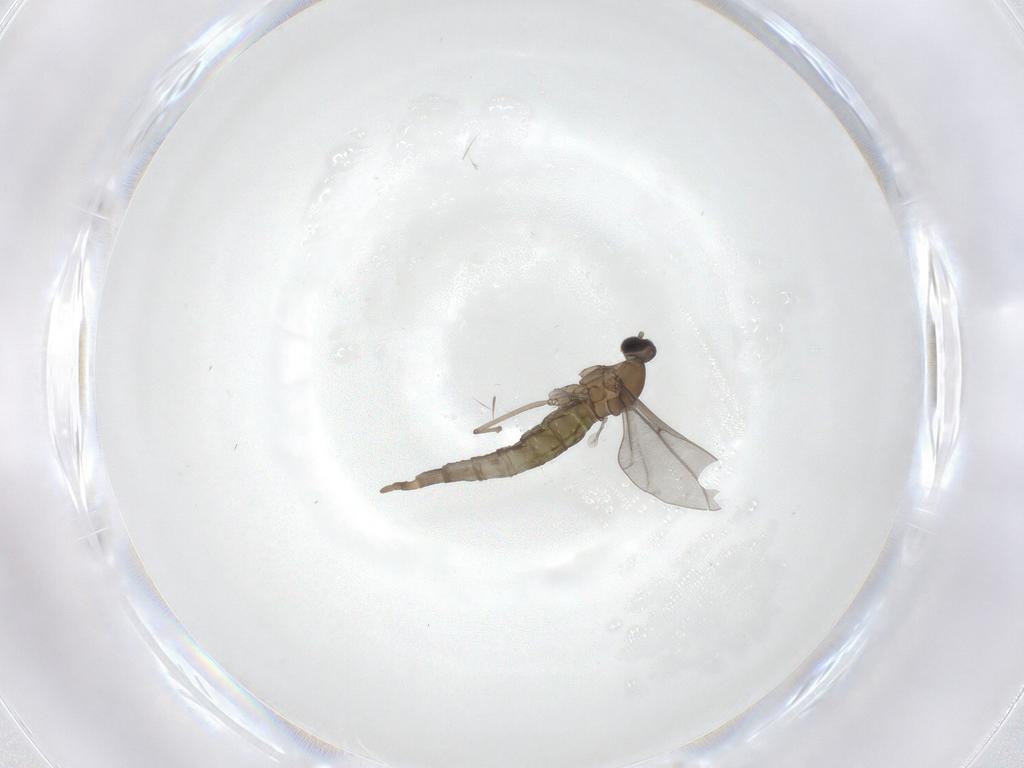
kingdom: Animalia
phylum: Arthropoda
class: Insecta
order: Diptera
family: Cecidomyiidae
